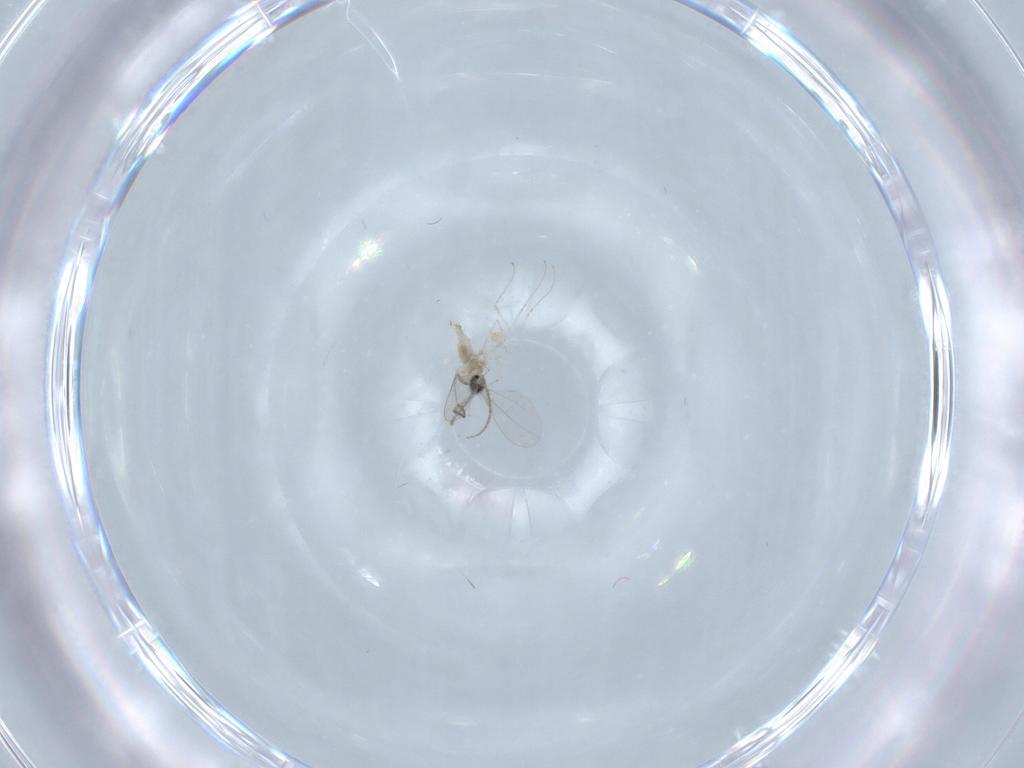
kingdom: Animalia
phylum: Arthropoda
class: Insecta
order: Diptera
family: Cecidomyiidae
